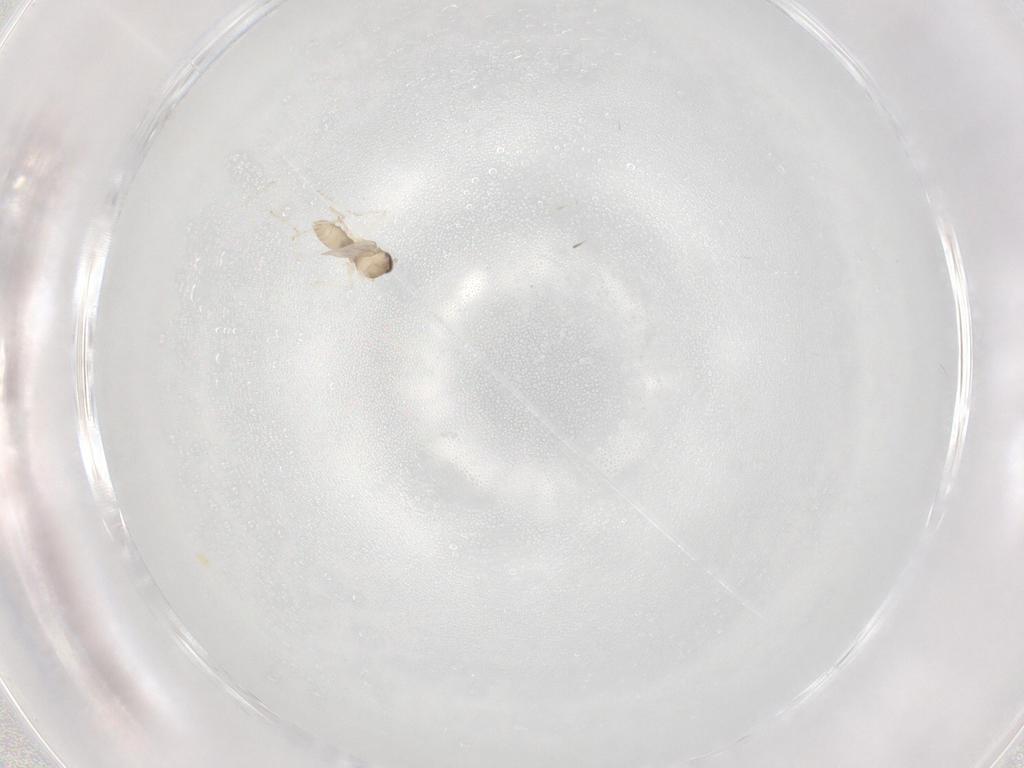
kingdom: Animalia
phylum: Arthropoda
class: Insecta
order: Diptera
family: Cecidomyiidae
